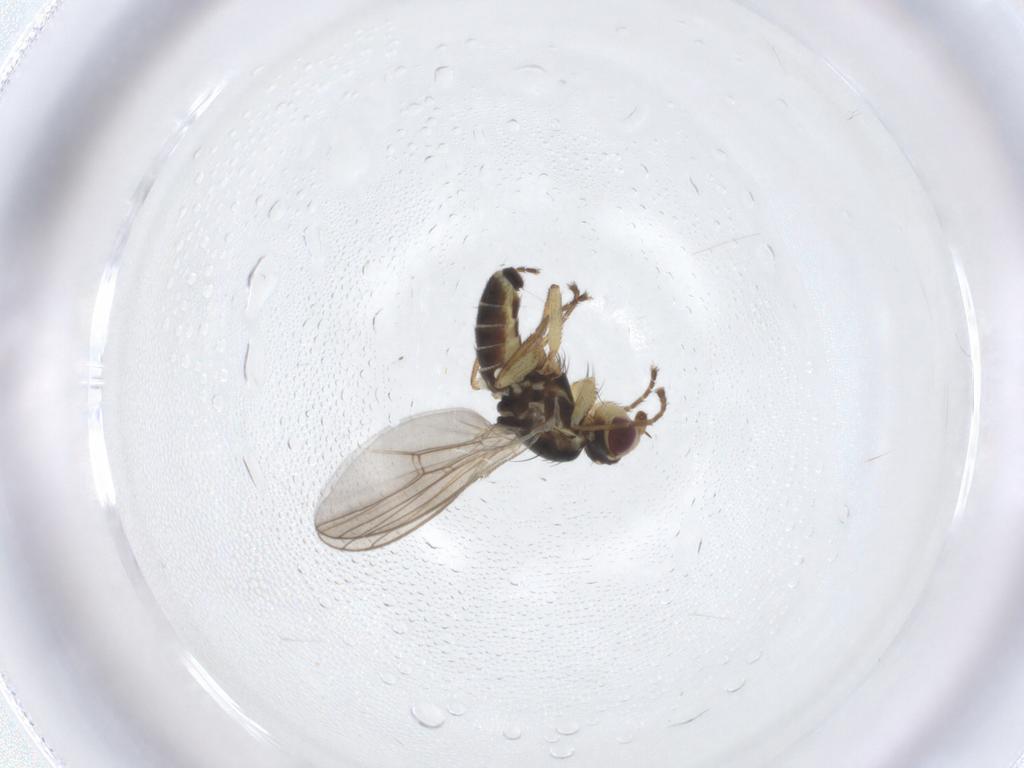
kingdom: Animalia
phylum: Arthropoda
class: Insecta
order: Diptera
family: Agromyzidae
